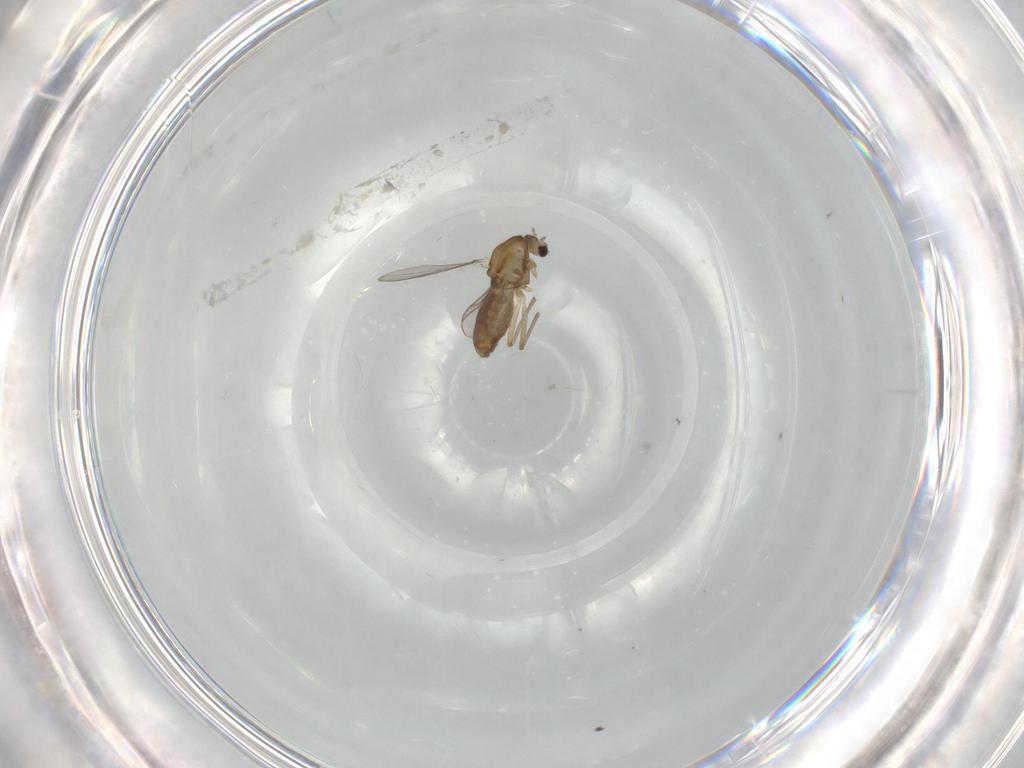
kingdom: Animalia
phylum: Arthropoda
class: Insecta
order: Diptera
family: Chironomidae
